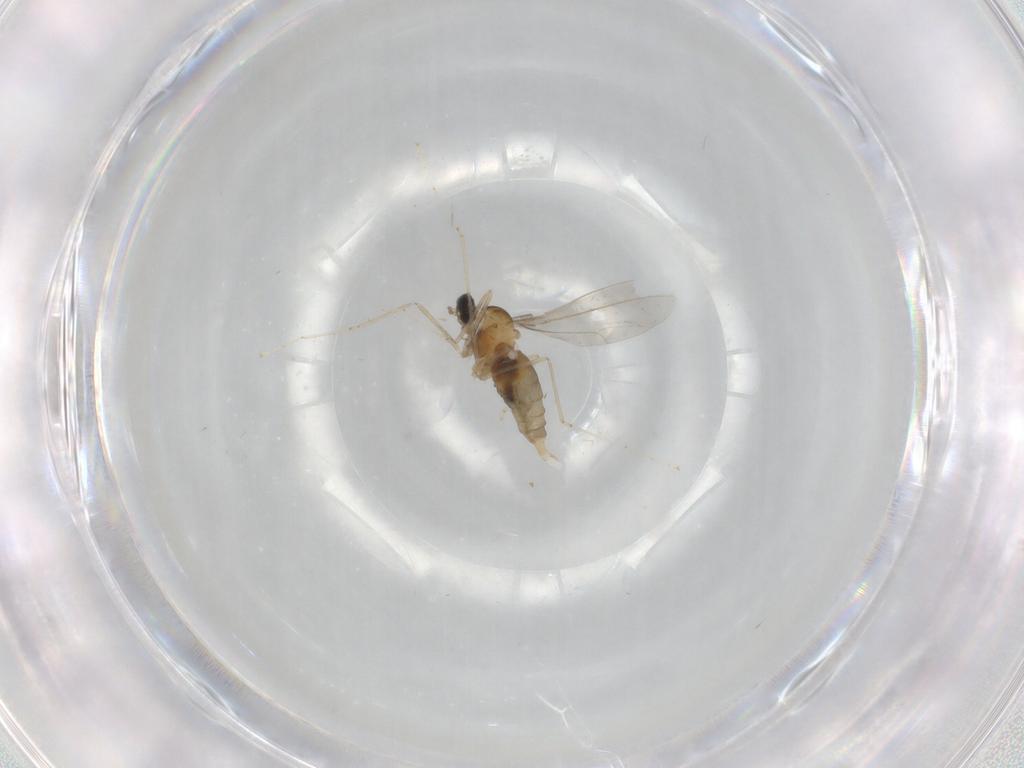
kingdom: Animalia
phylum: Arthropoda
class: Insecta
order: Diptera
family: Cecidomyiidae
